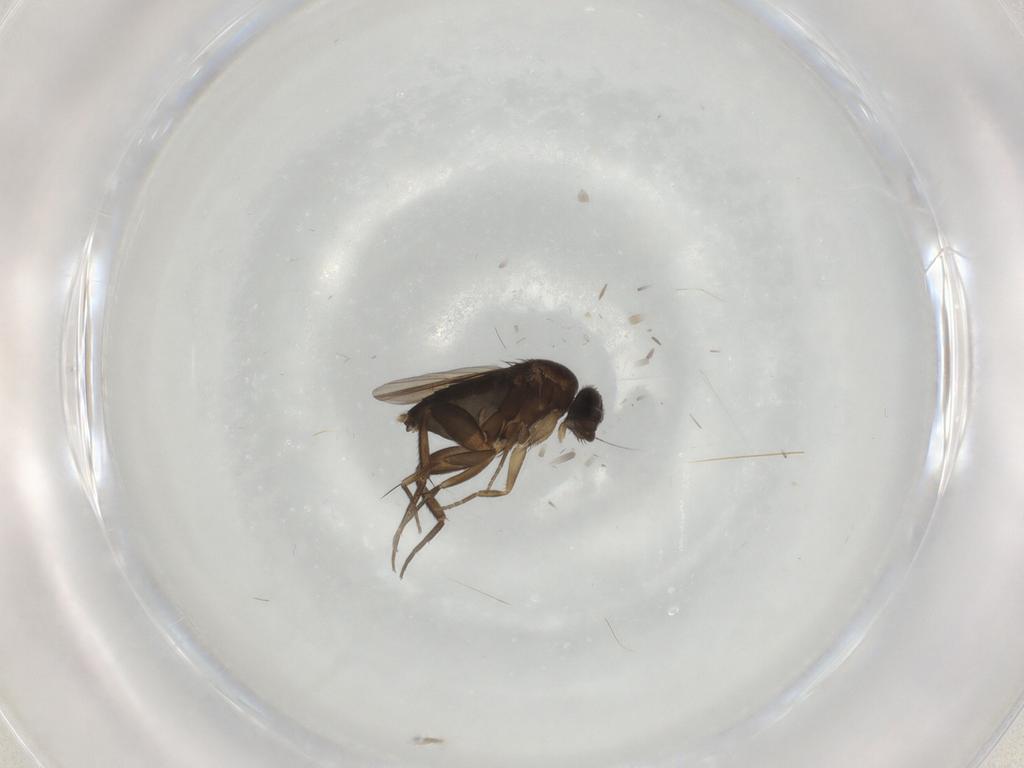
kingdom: Animalia
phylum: Arthropoda
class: Insecta
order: Diptera
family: Phoridae
